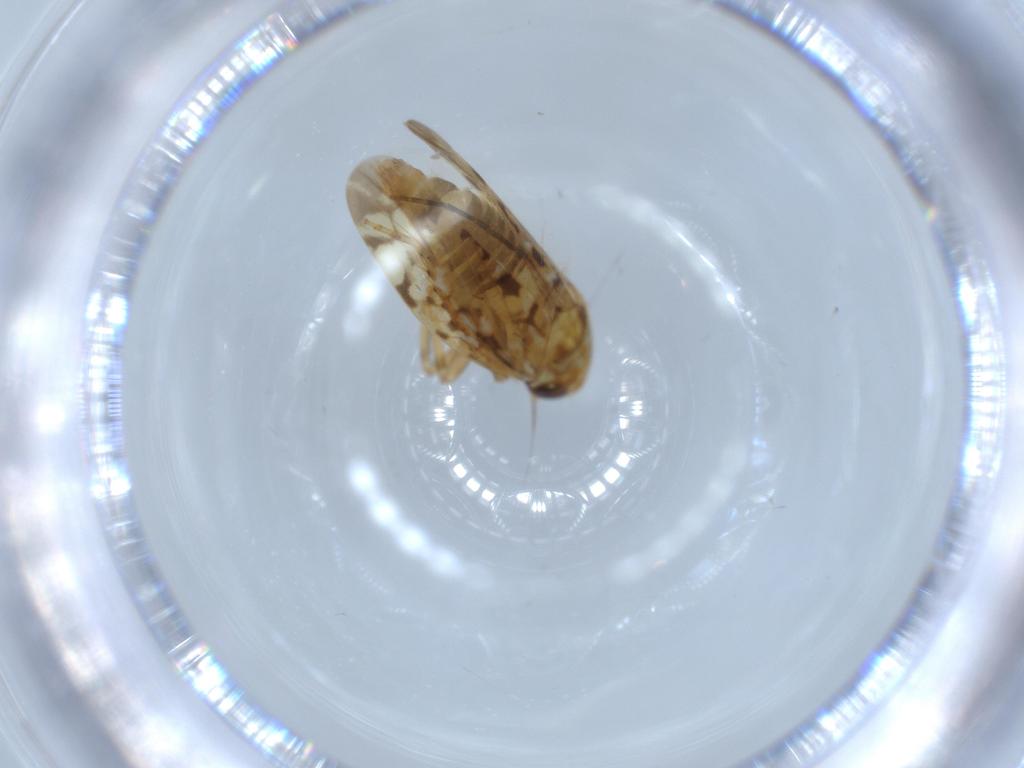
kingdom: Animalia
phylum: Arthropoda
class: Insecta
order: Hemiptera
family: Cicadellidae
